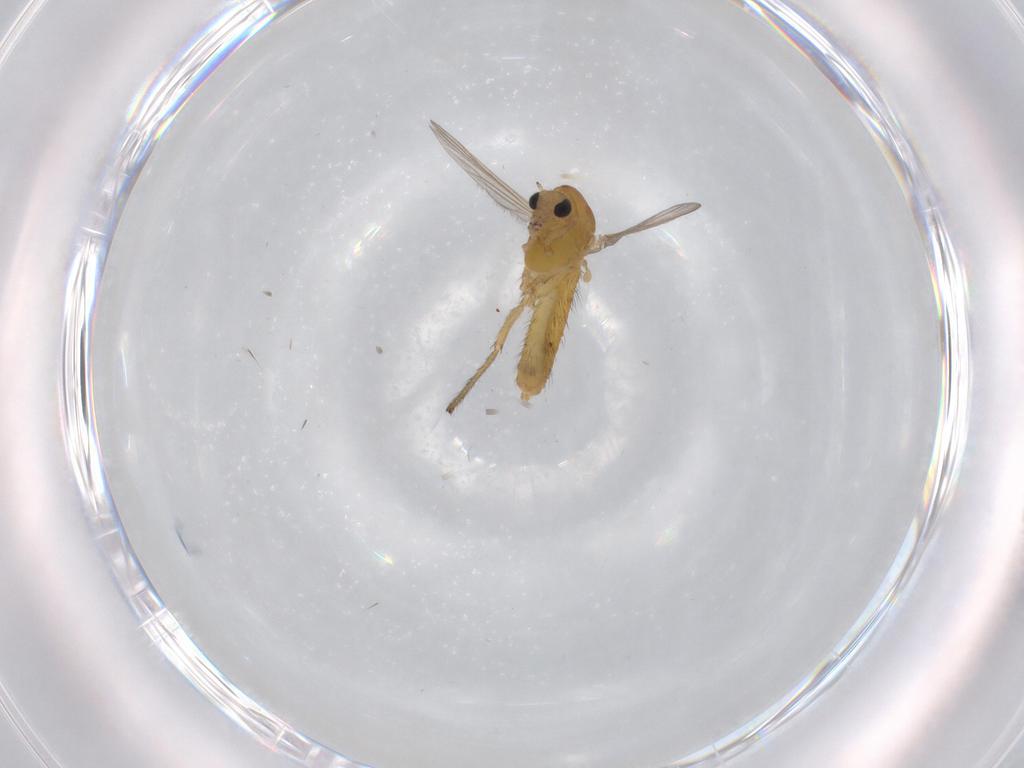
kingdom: Animalia
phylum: Arthropoda
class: Insecta
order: Diptera
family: Chironomidae
